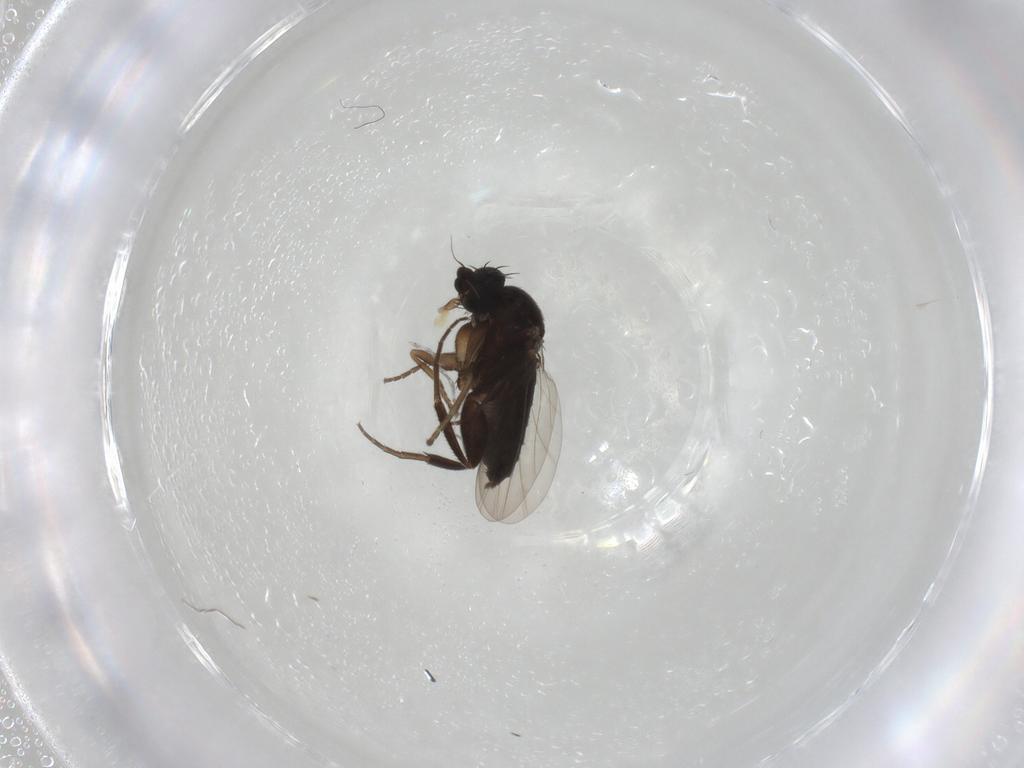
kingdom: Animalia
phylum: Arthropoda
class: Insecta
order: Diptera
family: Phoridae
